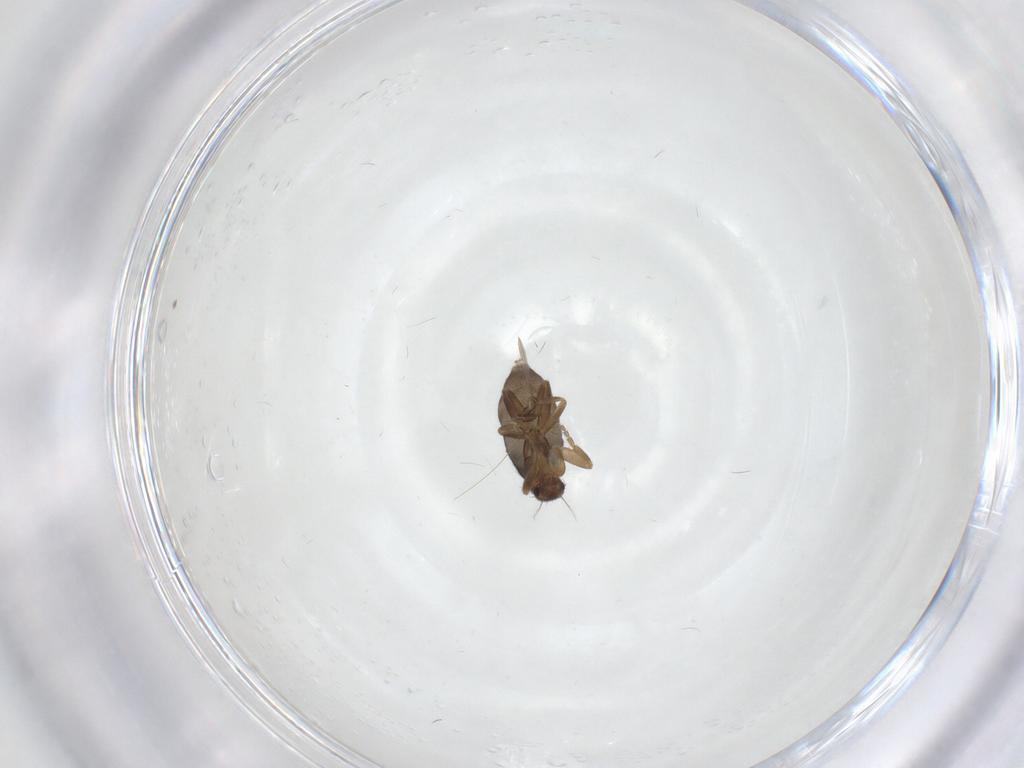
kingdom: Animalia
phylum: Arthropoda
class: Insecta
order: Diptera
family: Phoridae
